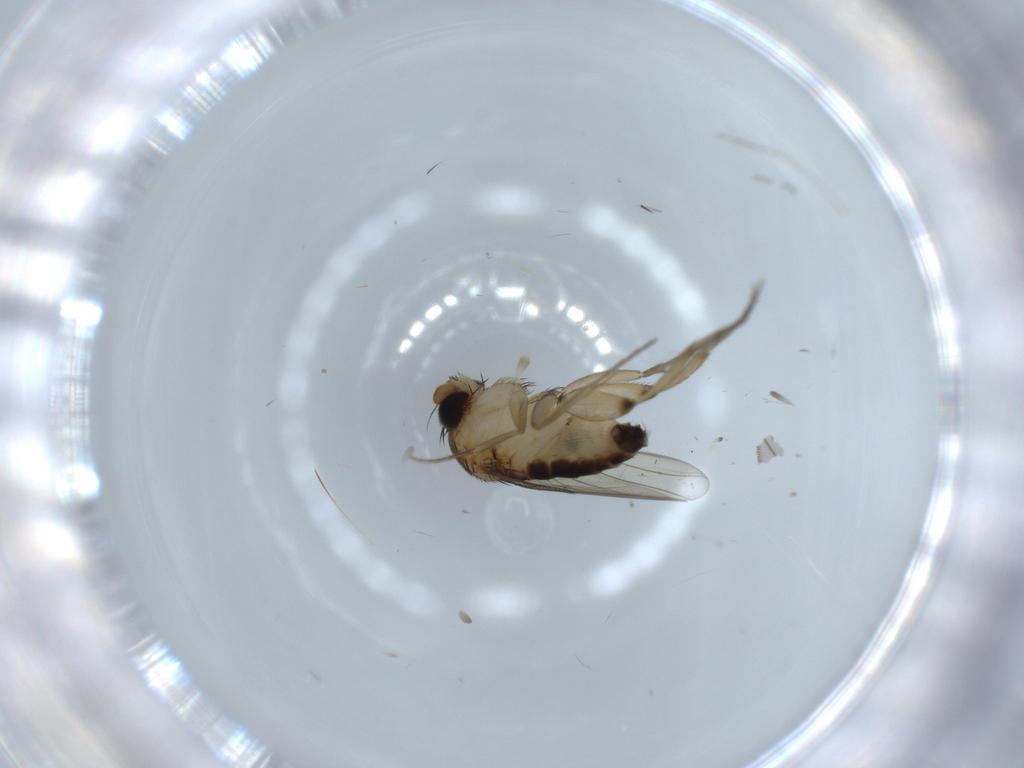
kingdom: Animalia
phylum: Arthropoda
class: Insecta
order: Diptera
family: Phoridae
